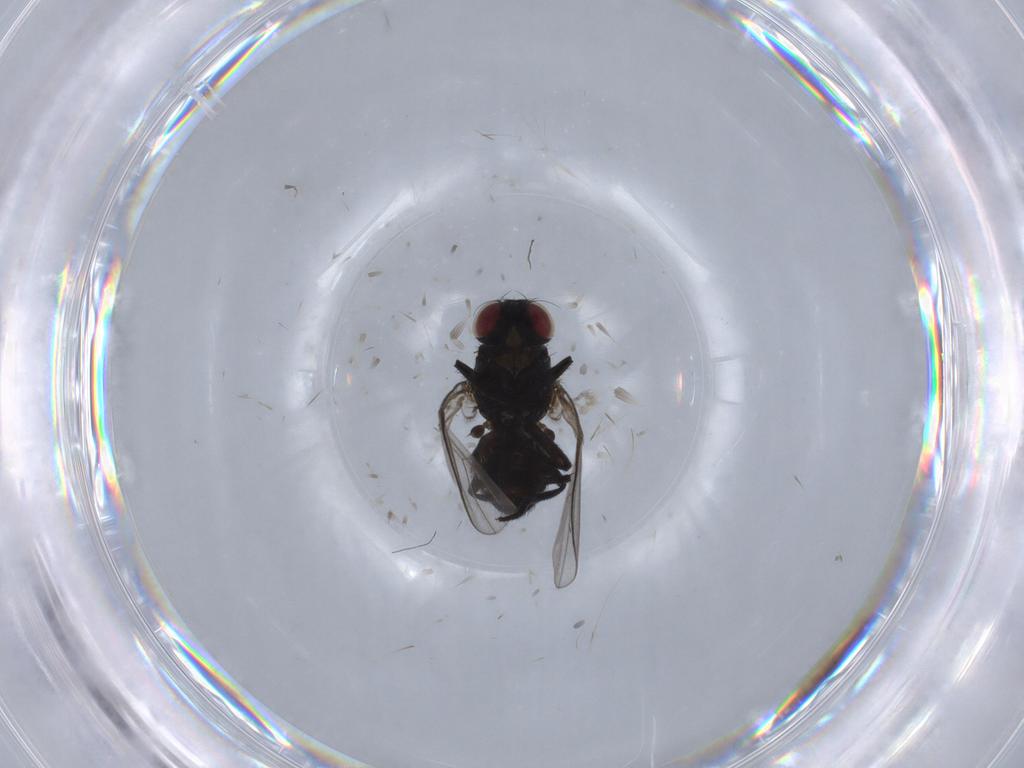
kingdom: Animalia
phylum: Arthropoda
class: Insecta
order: Diptera
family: Agromyzidae
